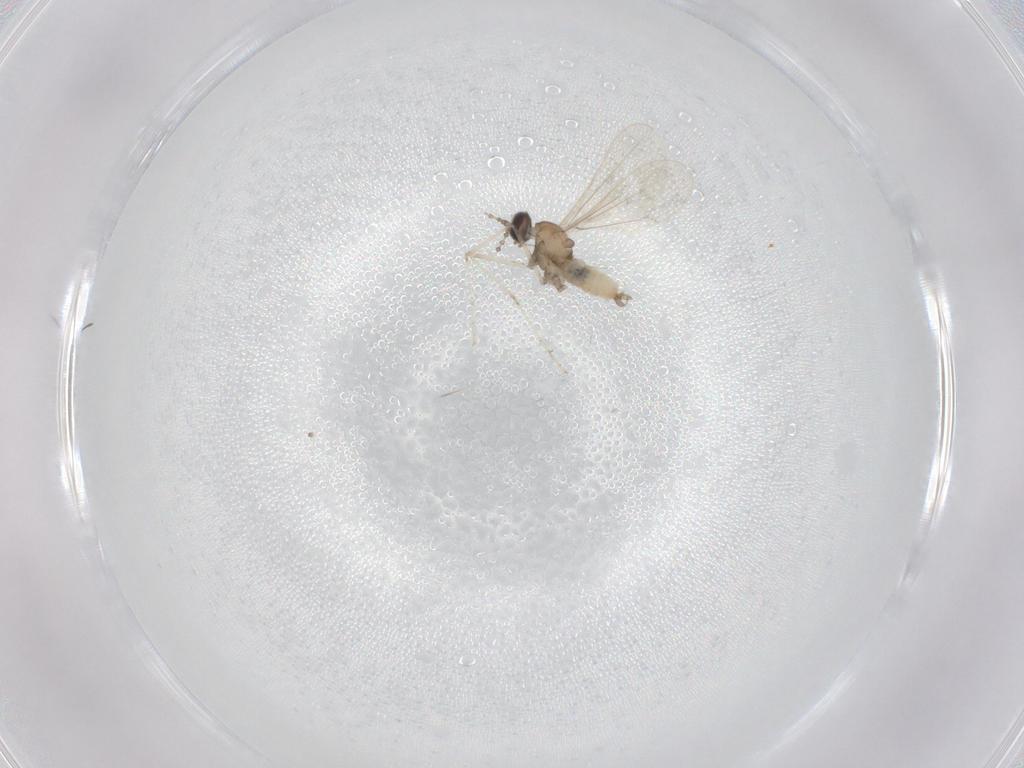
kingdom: Animalia
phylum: Arthropoda
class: Insecta
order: Diptera
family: Cecidomyiidae
